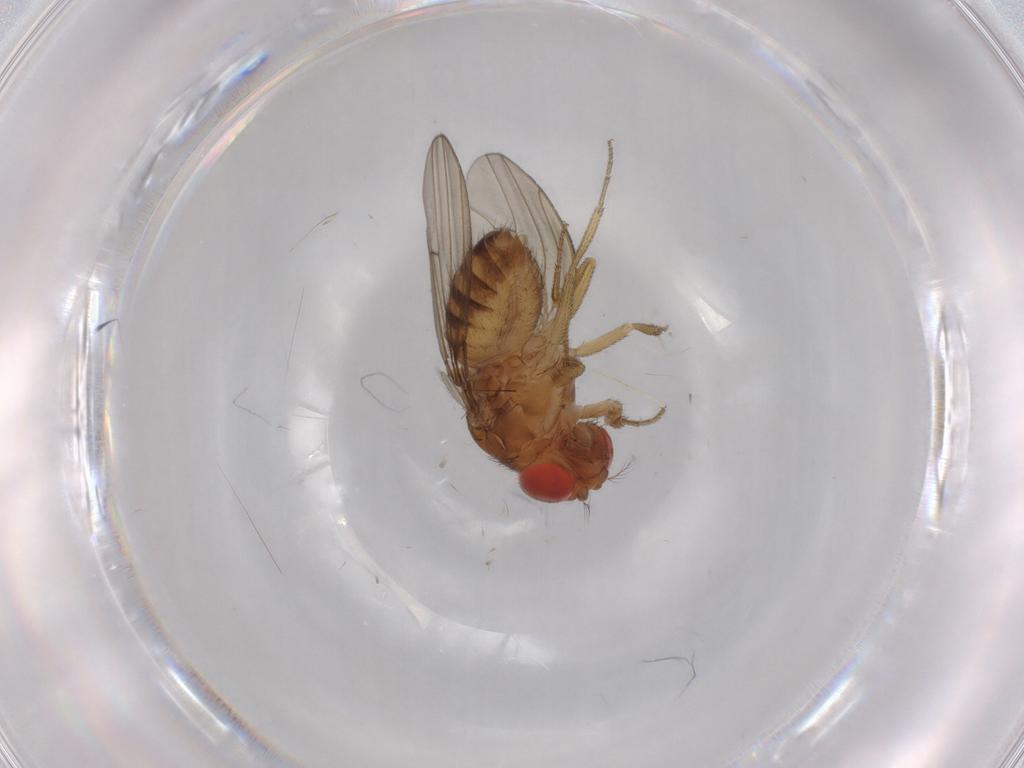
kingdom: Animalia
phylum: Arthropoda
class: Insecta
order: Diptera
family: Drosophilidae
